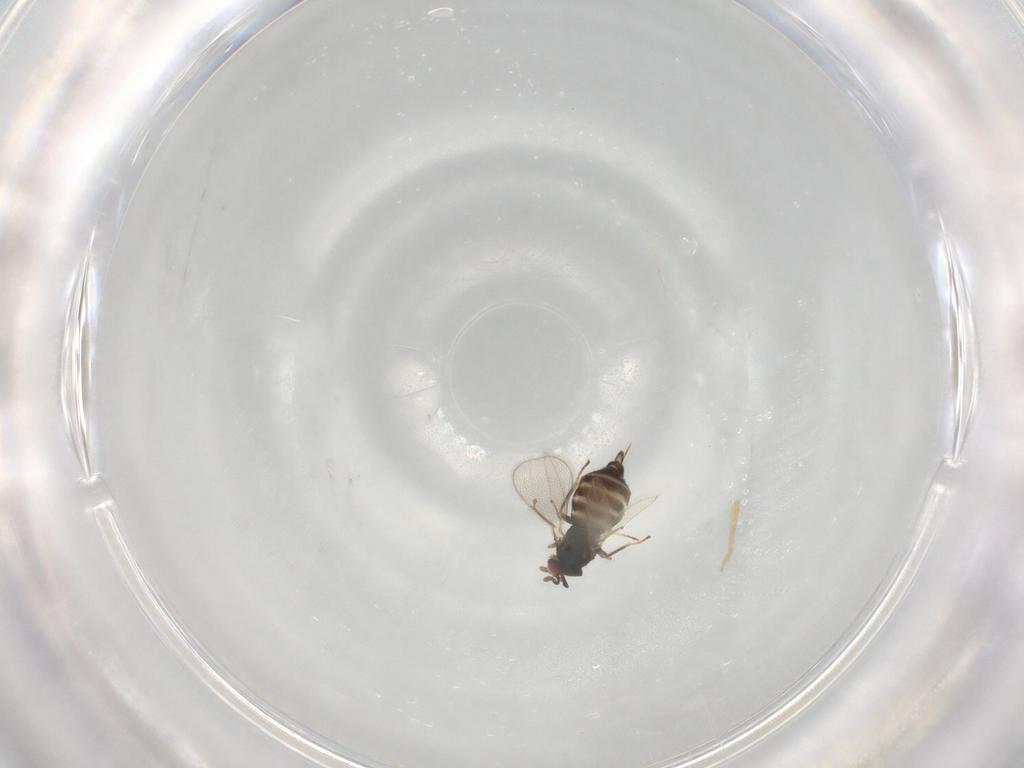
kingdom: Animalia
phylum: Arthropoda
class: Insecta
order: Hymenoptera
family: Eulophidae
